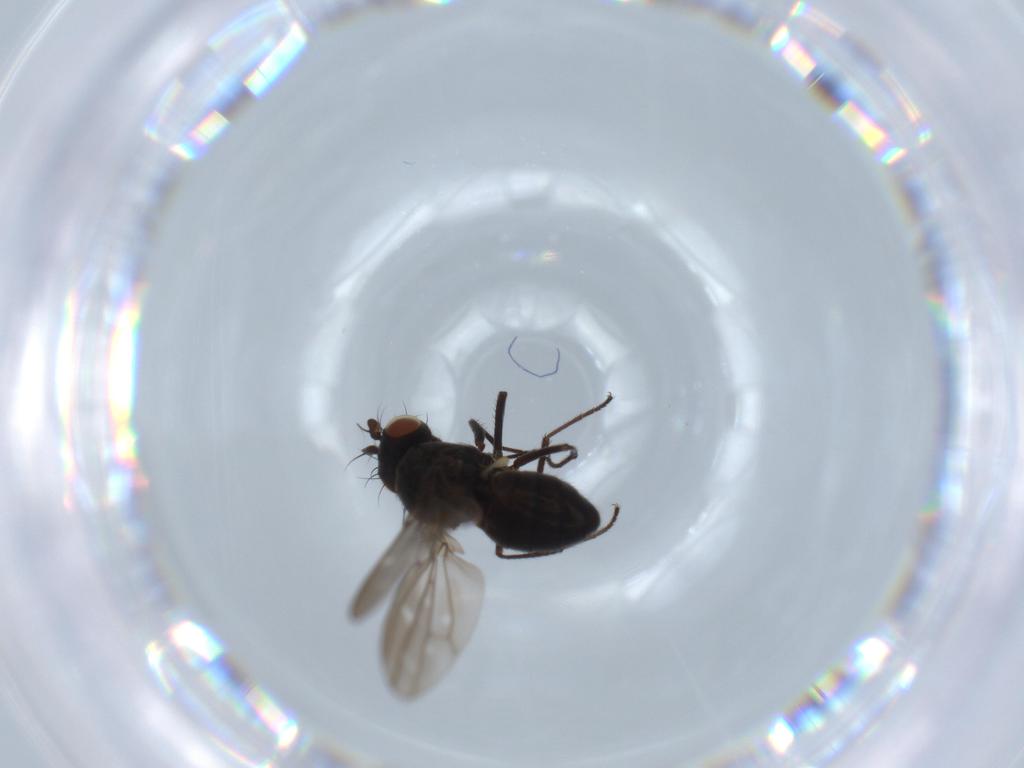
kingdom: Animalia
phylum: Arthropoda
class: Insecta
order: Diptera
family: Ephydridae
